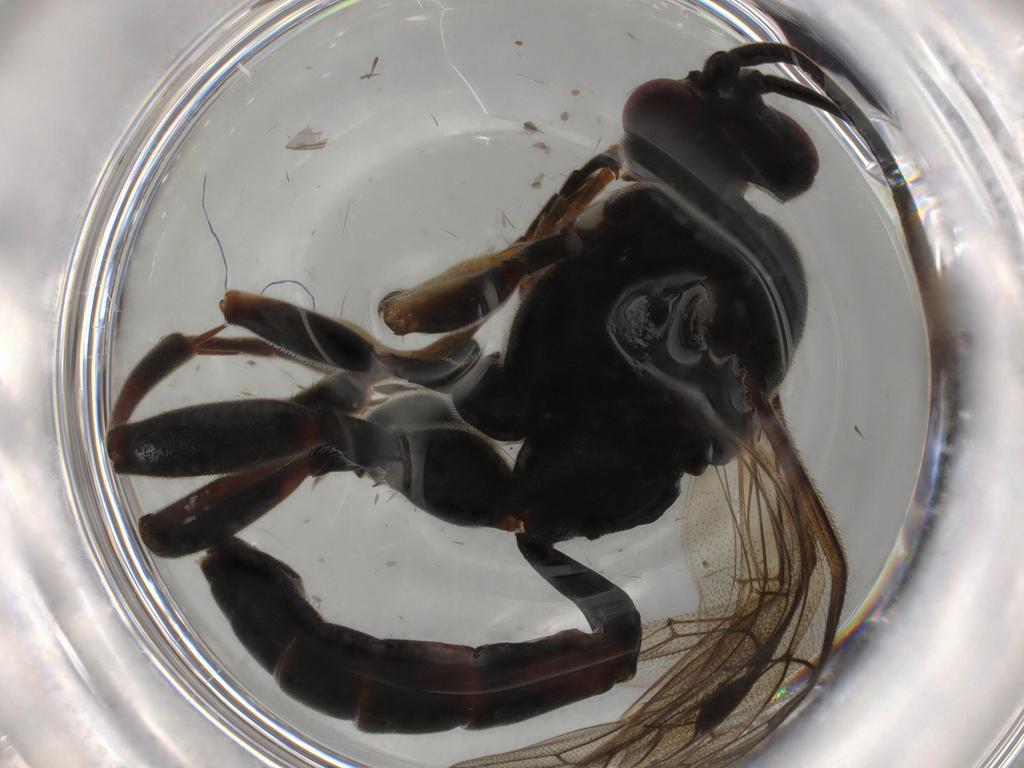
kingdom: Animalia
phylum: Arthropoda
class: Insecta
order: Hymenoptera
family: Ichneumonidae
